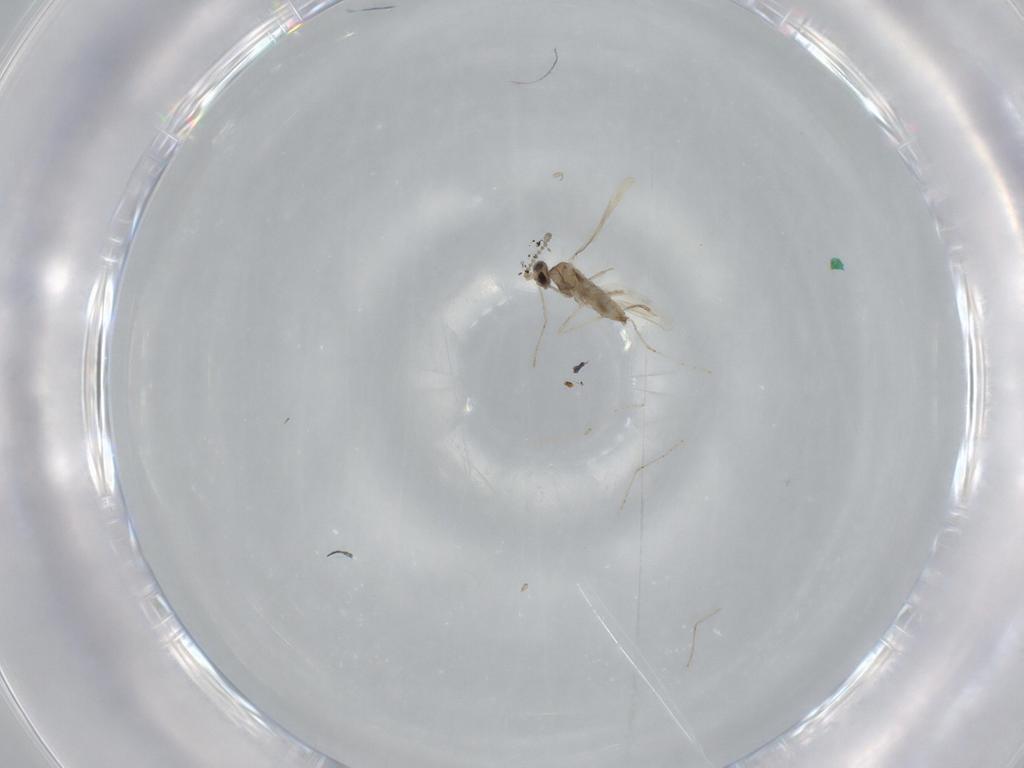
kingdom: Animalia
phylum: Arthropoda
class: Insecta
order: Diptera
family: Cecidomyiidae
